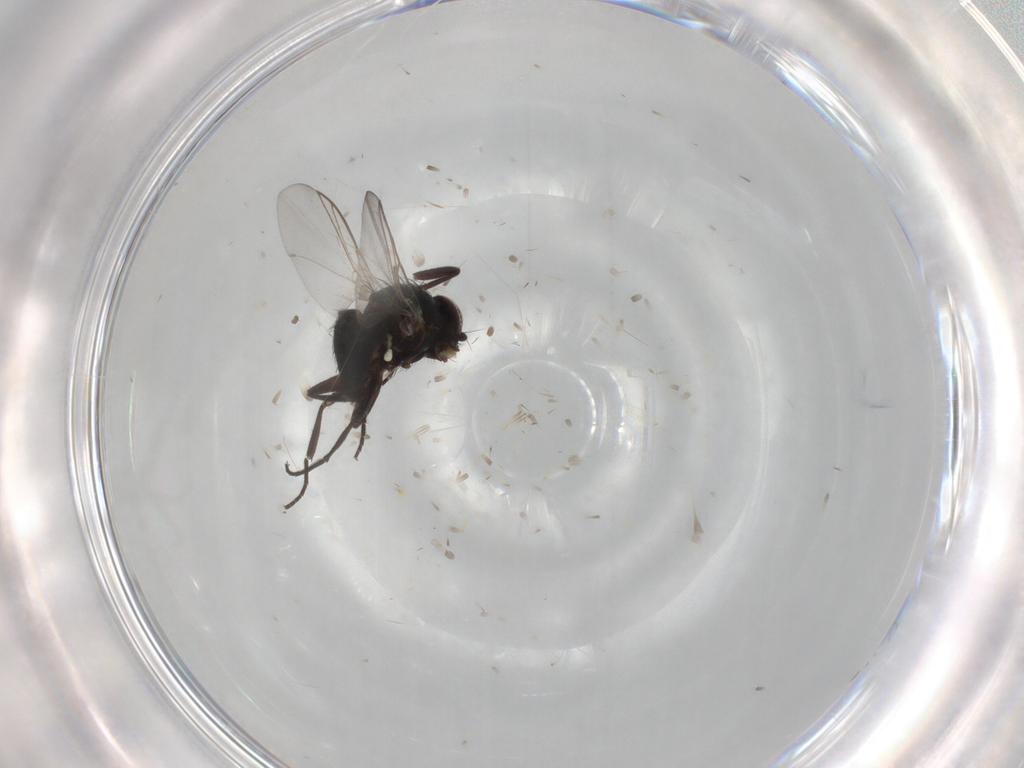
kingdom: Animalia
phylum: Arthropoda
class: Insecta
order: Diptera
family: Agromyzidae
